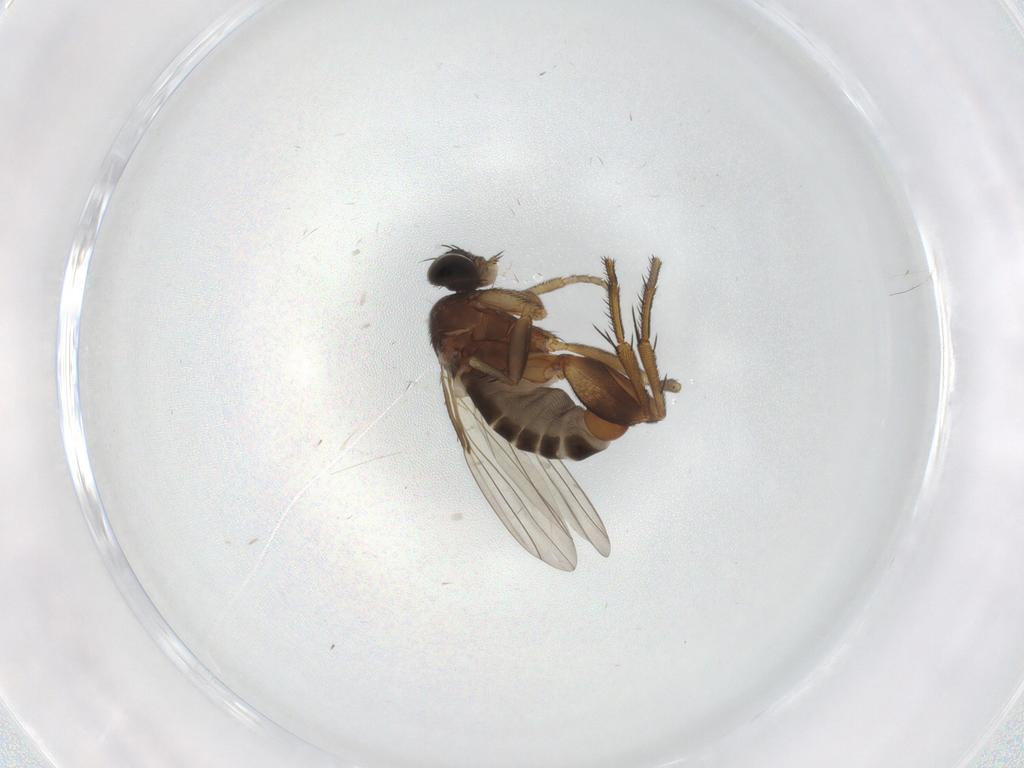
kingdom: Animalia
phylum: Arthropoda
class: Insecta
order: Diptera
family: Phoridae
